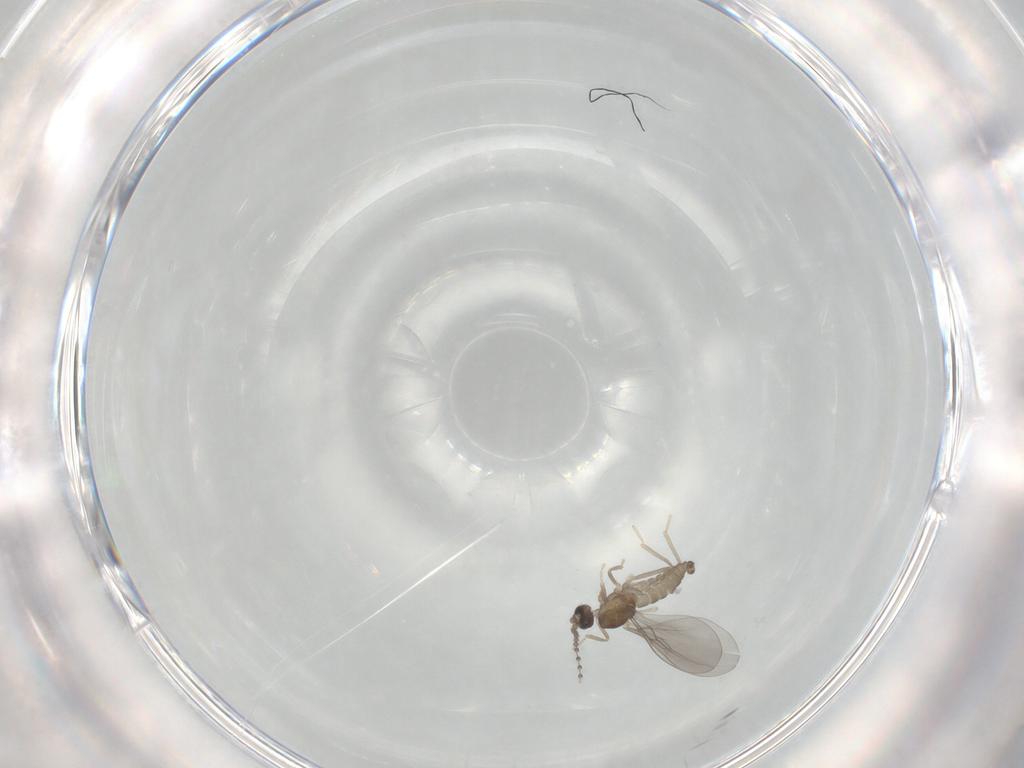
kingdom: Animalia
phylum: Arthropoda
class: Insecta
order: Diptera
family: Cecidomyiidae
